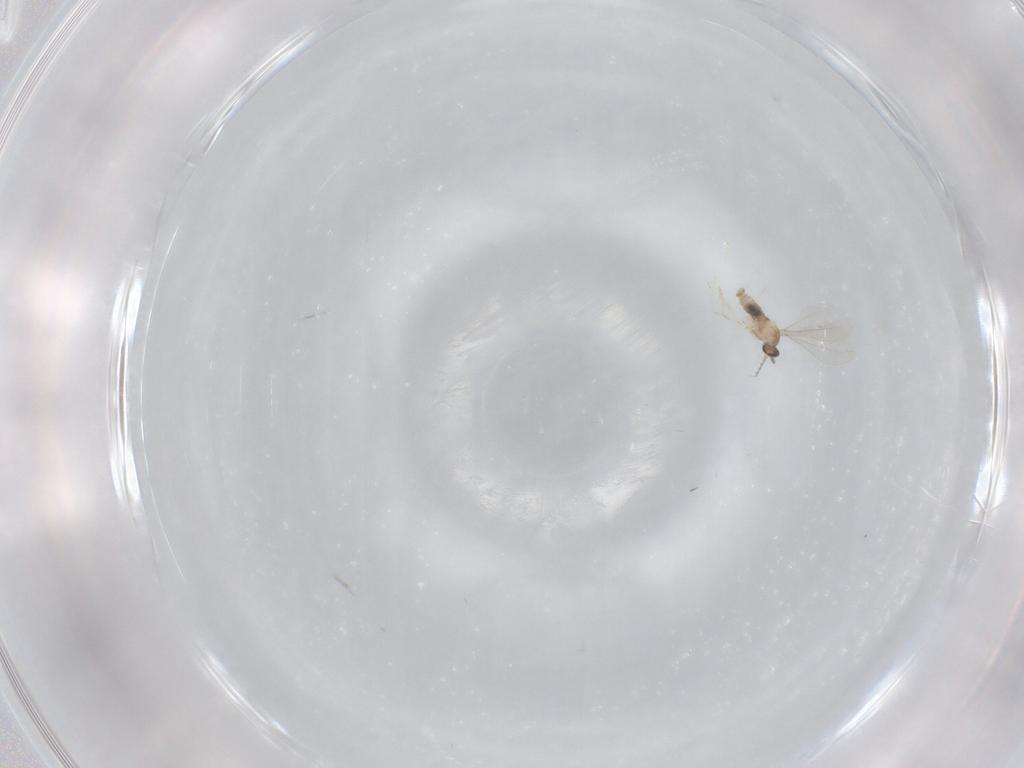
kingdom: Animalia
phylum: Arthropoda
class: Insecta
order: Diptera
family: Cecidomyiidae
